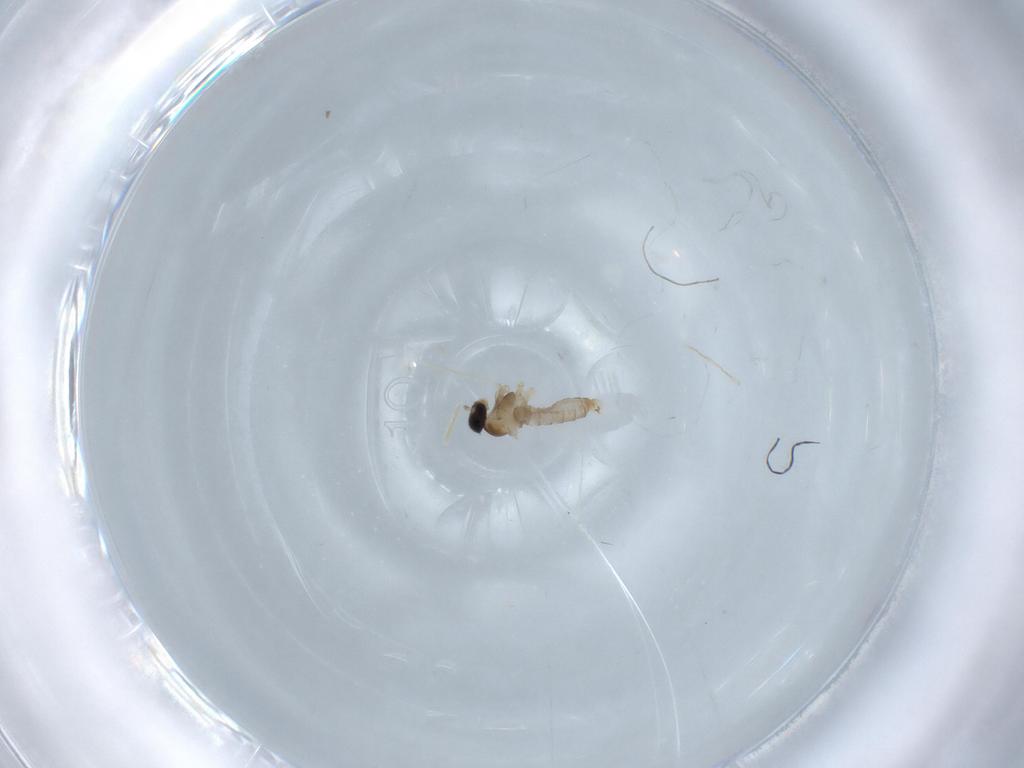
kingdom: Animalia
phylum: Arthropoda
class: Insecta
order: Diptera
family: Cecidomyiidae
